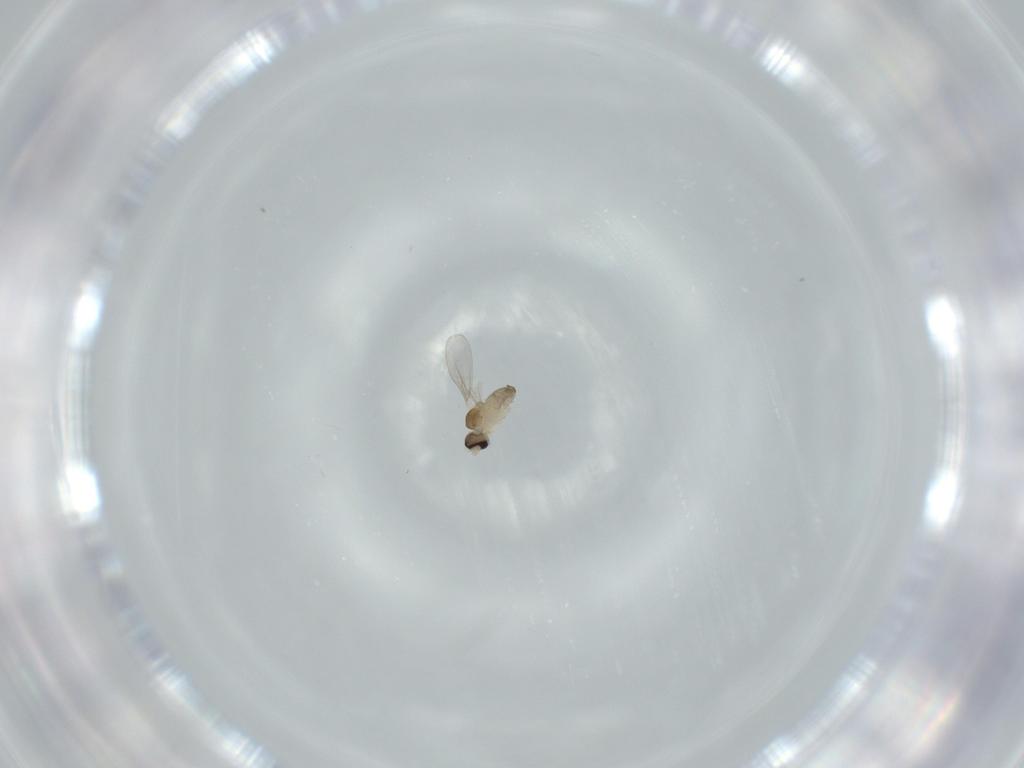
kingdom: Animalia
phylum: Arthropoda
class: Insecta
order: Diptera
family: Cecidomyiidae
